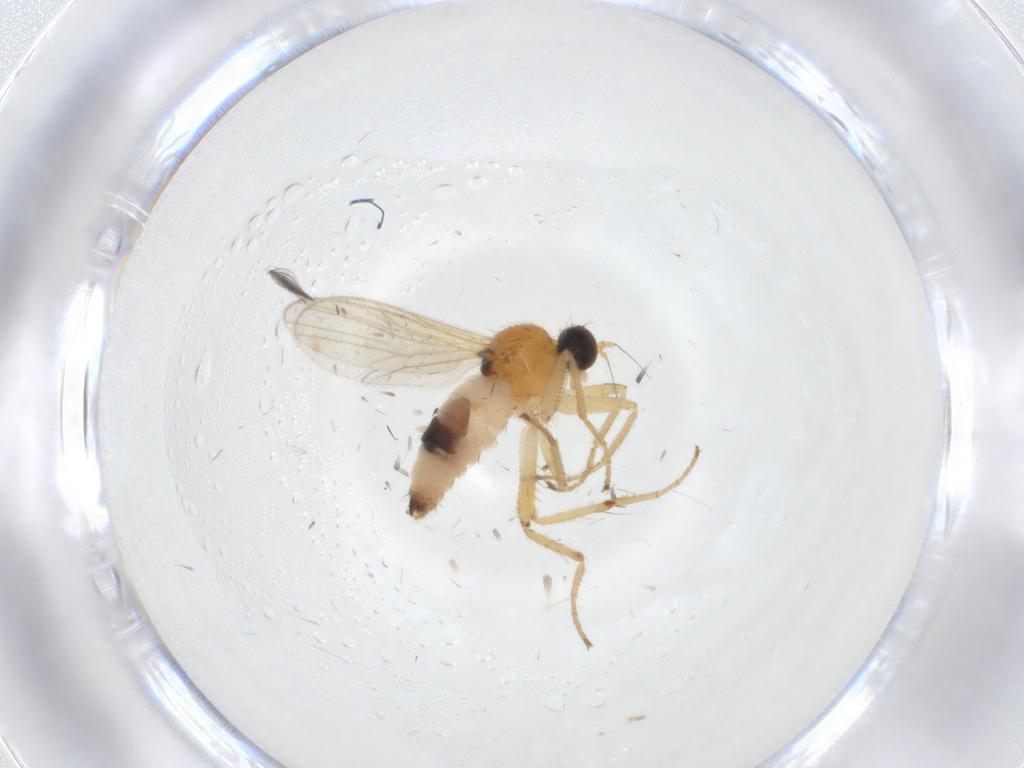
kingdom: Animalia
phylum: Arthropoda
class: Insecta
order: Diptera
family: Hybotidae
